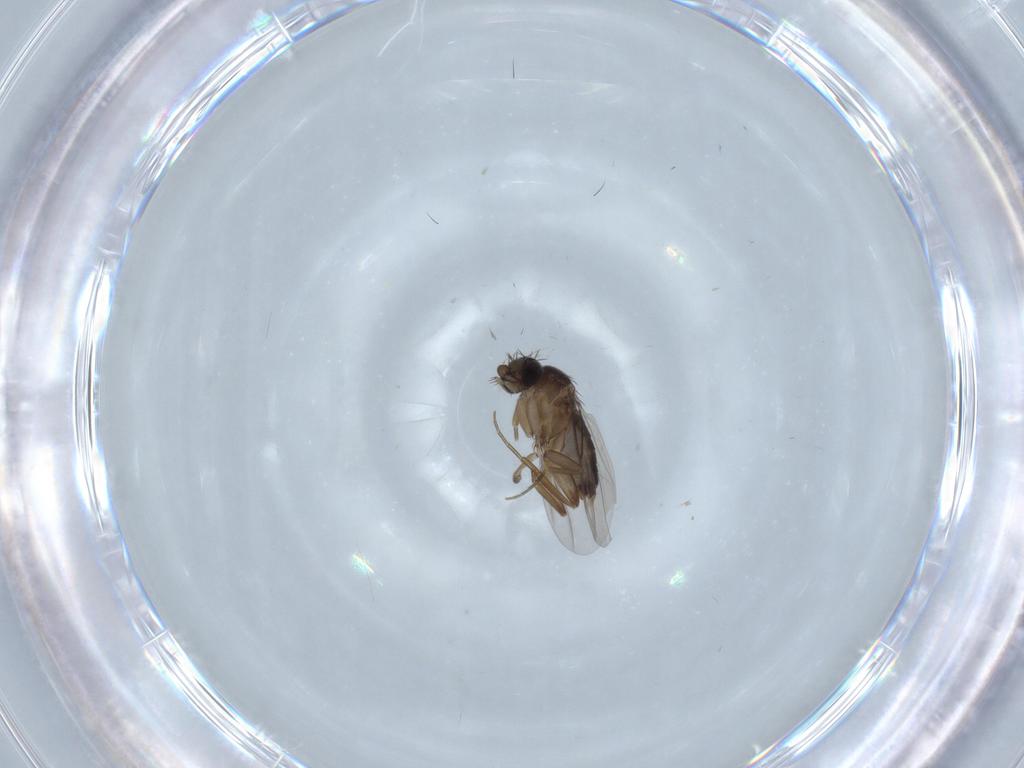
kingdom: Animalia
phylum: Arthropoda
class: Insecta
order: Diptera
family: Phoridae
